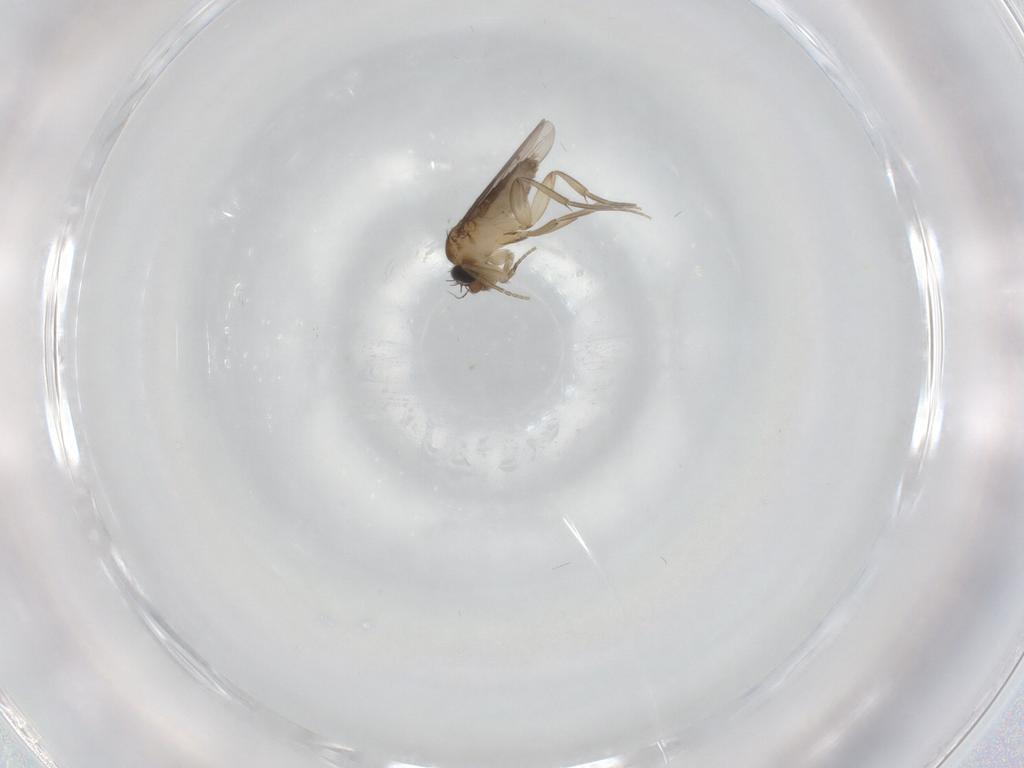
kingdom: Animalia
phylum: Arthropoda
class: Insecta
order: Diptera
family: Phoridae
